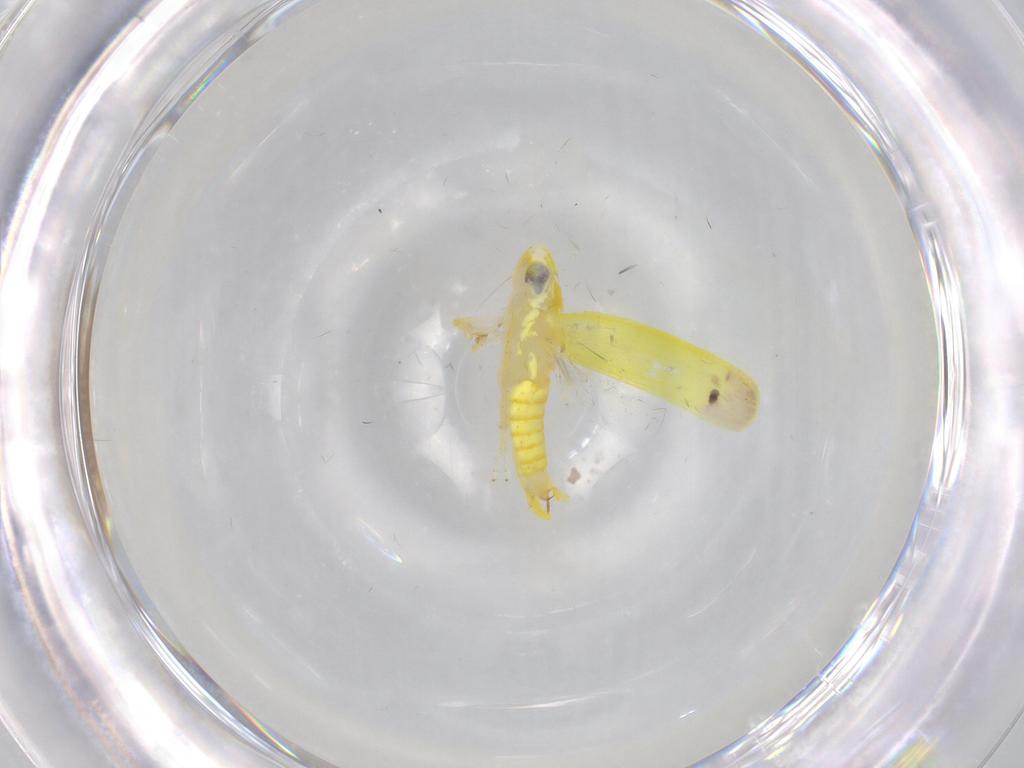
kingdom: Animalia
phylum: Arthropoda
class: Insecta
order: Hemiptera
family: Cicadellidae
